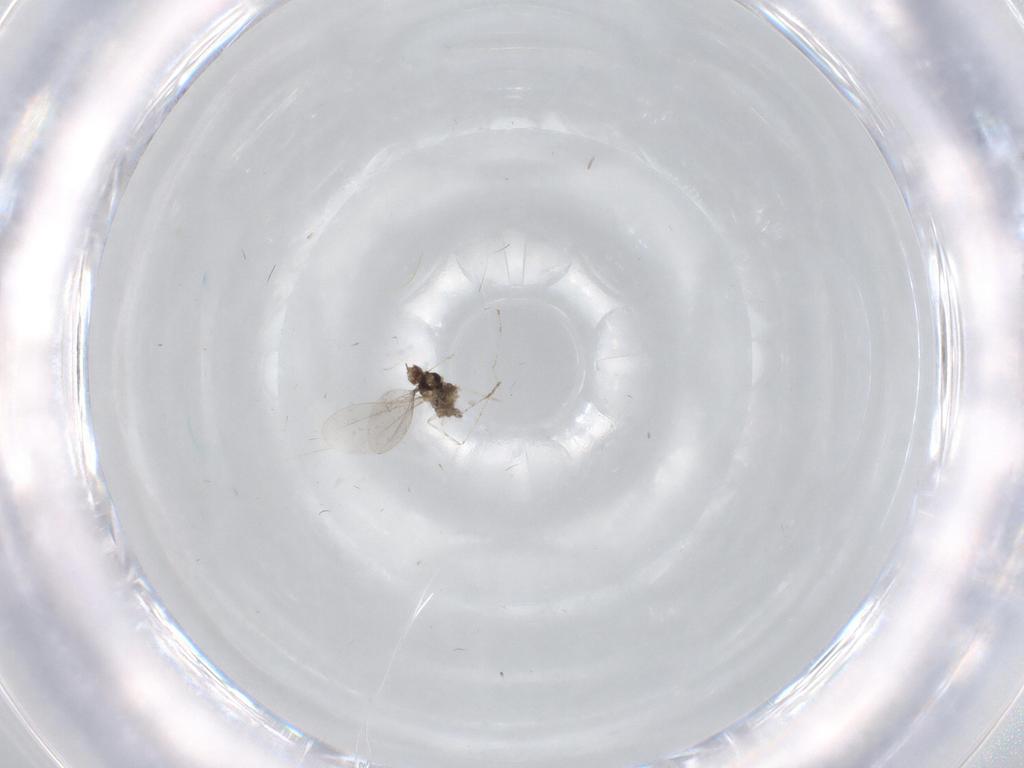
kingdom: Animalia
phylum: Arthropoda
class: Insecta
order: Diptera
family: Cecidomyiidae
